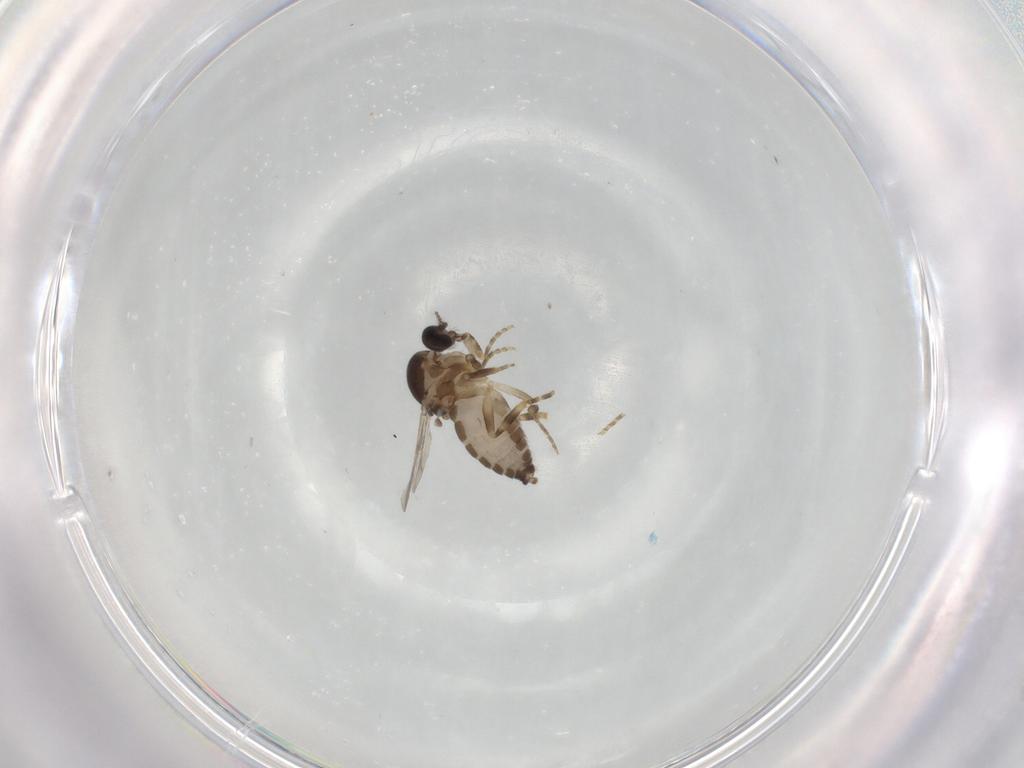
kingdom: Animalia
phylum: Arthropoda
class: Insecta
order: Diptera
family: Ceratopogonidae
